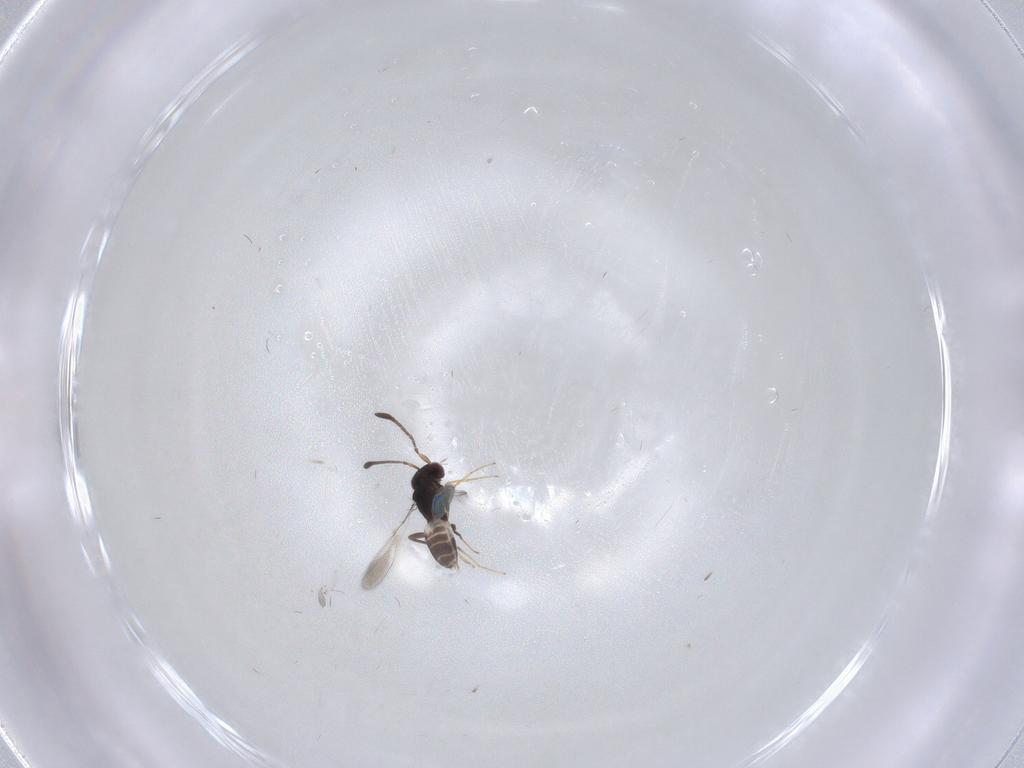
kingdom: Animalia
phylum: Arthropoda
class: Insecta
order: Hymenoptera
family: Mymaridae
